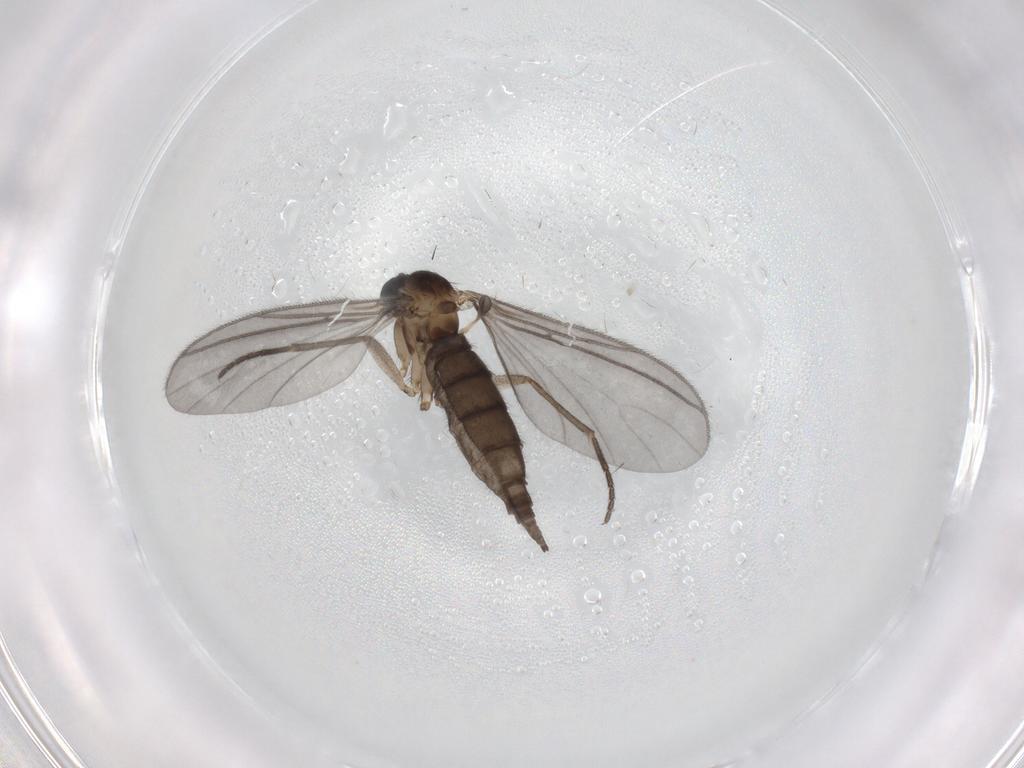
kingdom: Animalia
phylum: Arthropoda
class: Insecta
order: Diptera
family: Sciaridae
